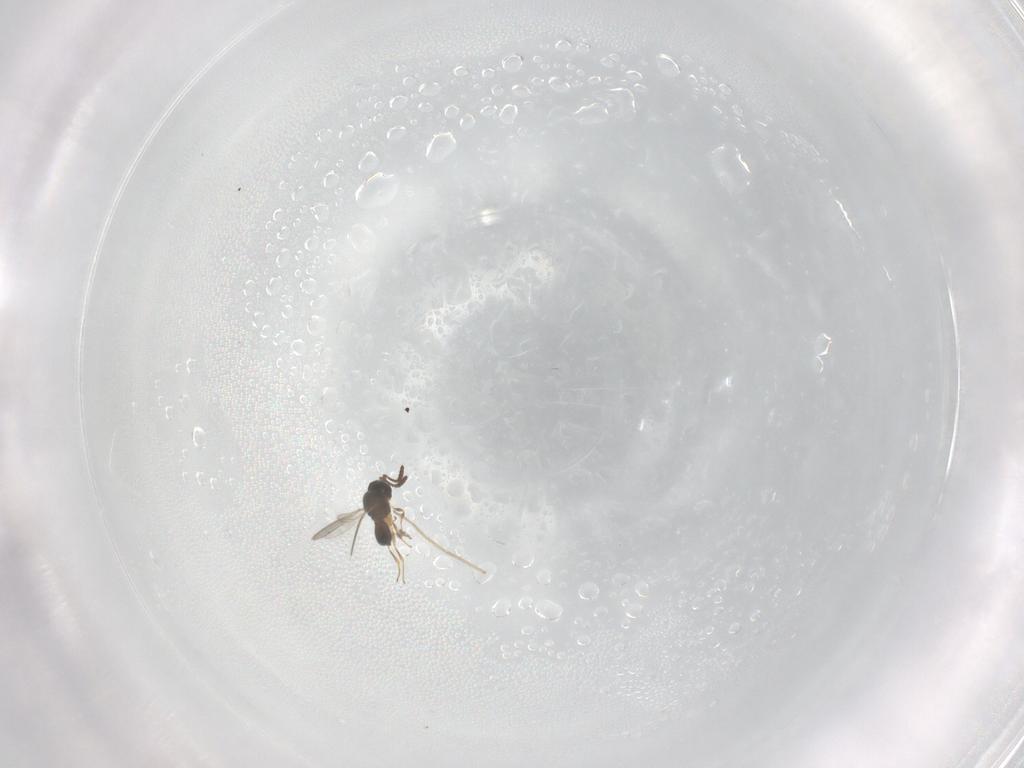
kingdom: Animalia
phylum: Arthropoda
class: Insecta
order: Hymenoptera
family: Scelionidae
